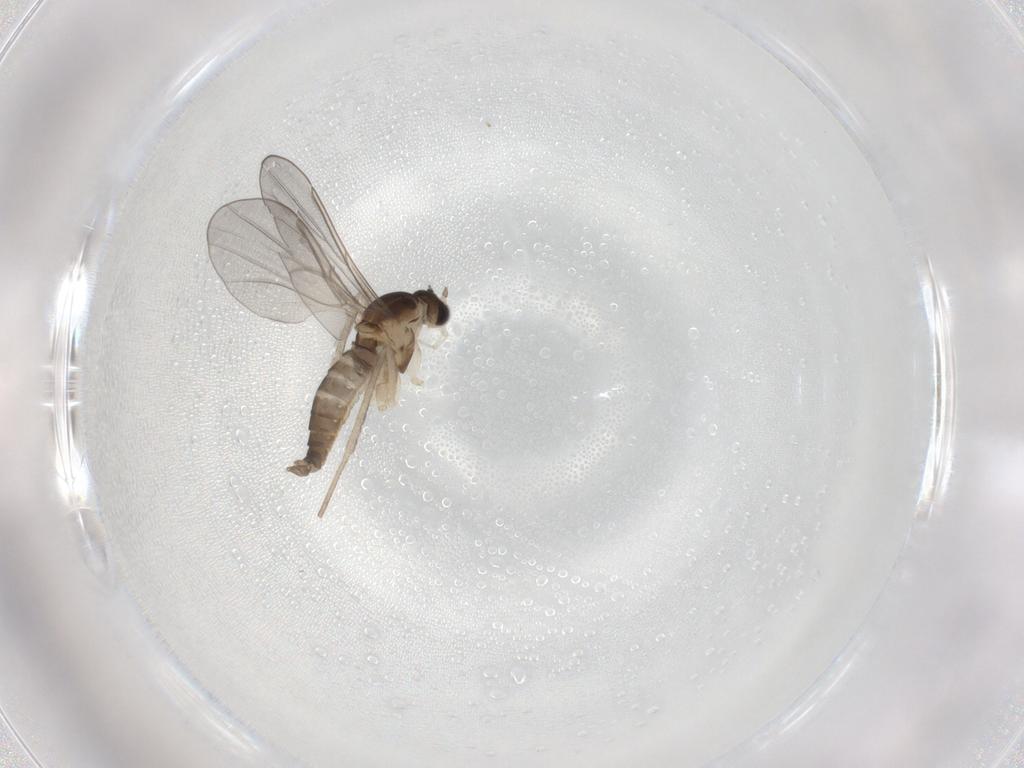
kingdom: Animalia
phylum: Arthropoda
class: Insecta
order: Diptera
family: Cecidomyiidae
